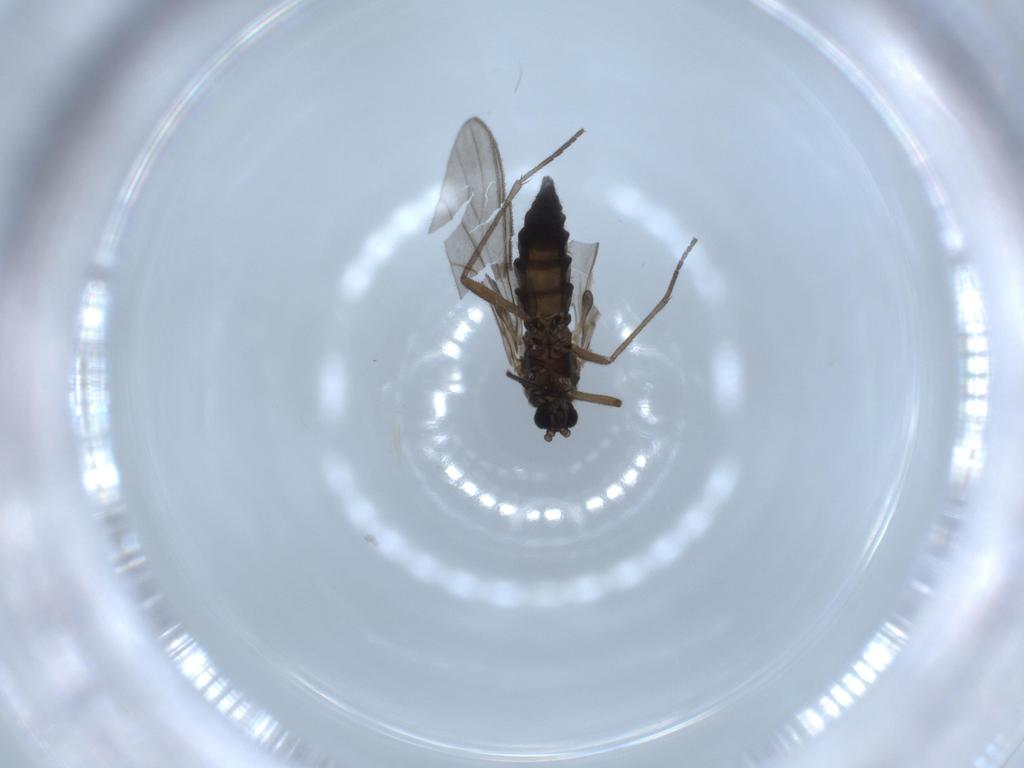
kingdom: Animalia
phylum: Arthropoda
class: Insecta
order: Diptera
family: Sciaridae
